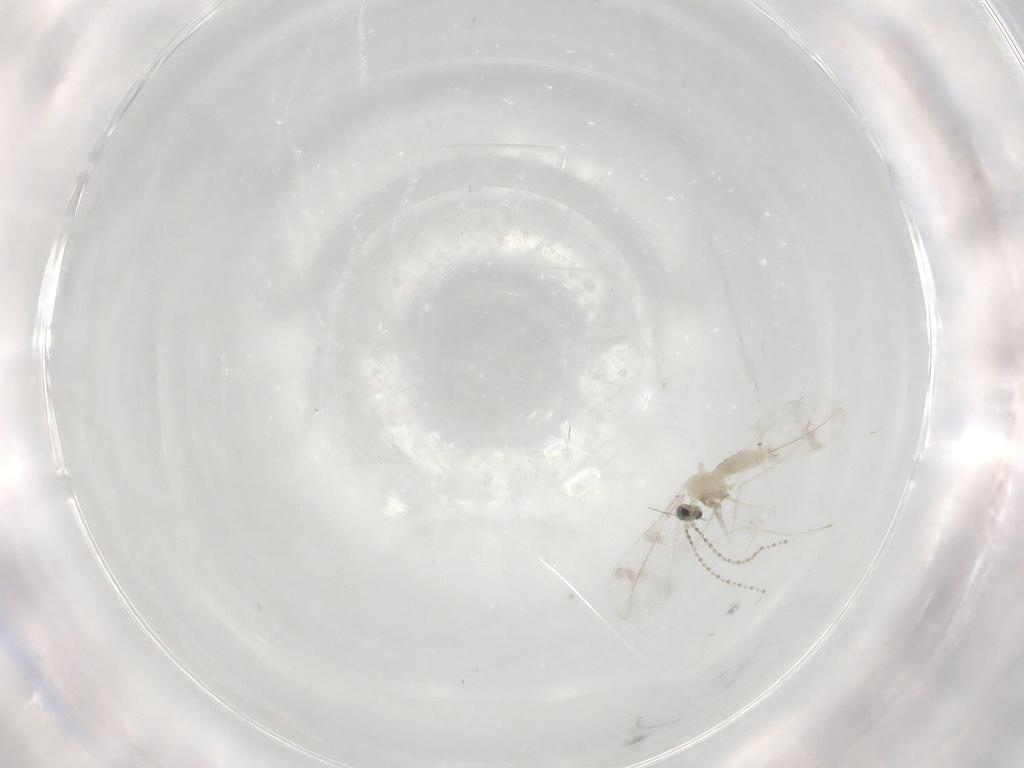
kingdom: Animalia
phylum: Arthropoda
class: Insecta
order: Diptera
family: Cecidomyiidae
